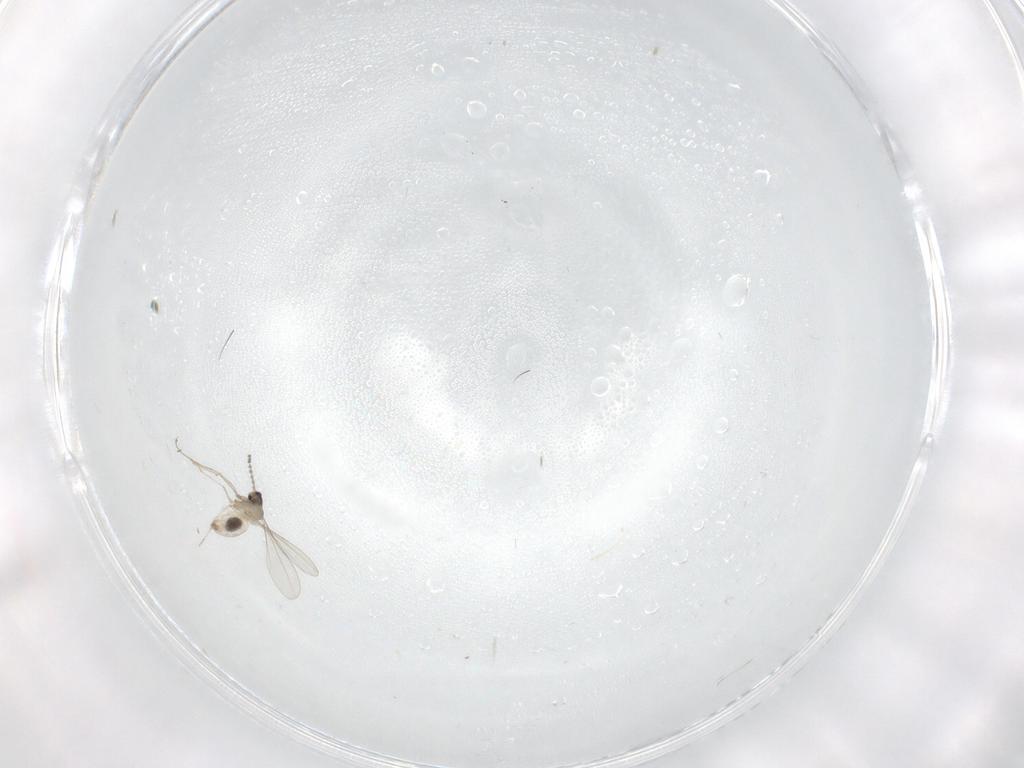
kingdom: Animalia
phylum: Arthropoda
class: Insecta
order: Diptera
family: Cecidomyiidae
